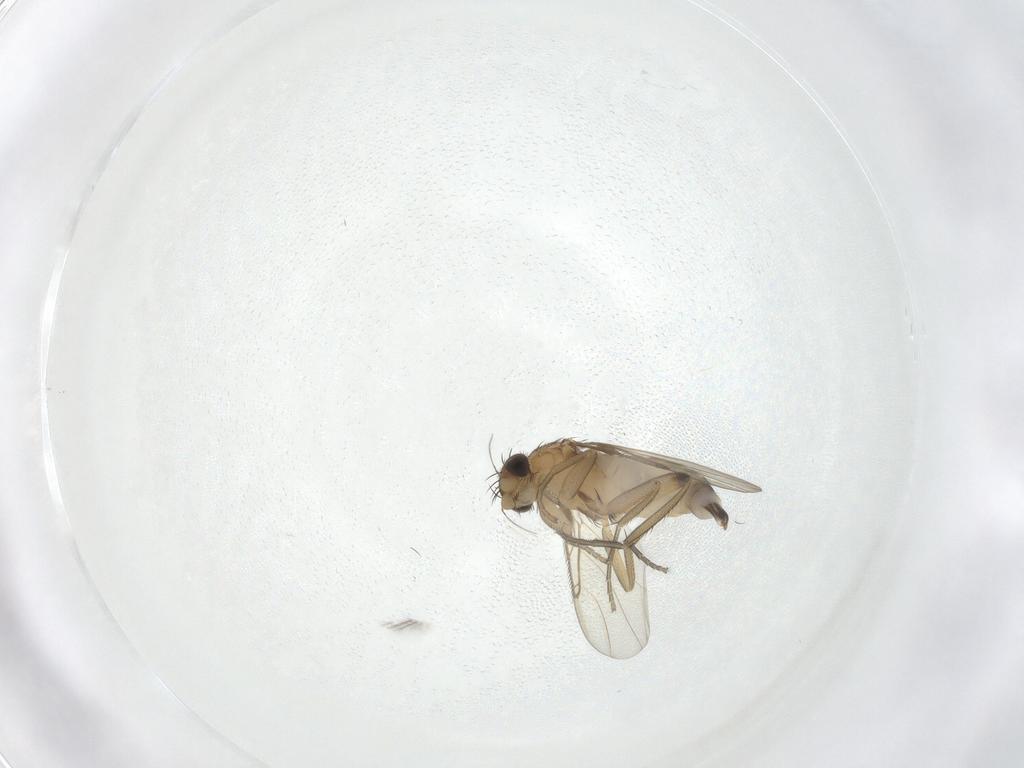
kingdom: Animalia
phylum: Arthropoda
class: Insecta
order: Diptera
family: Phoridae
